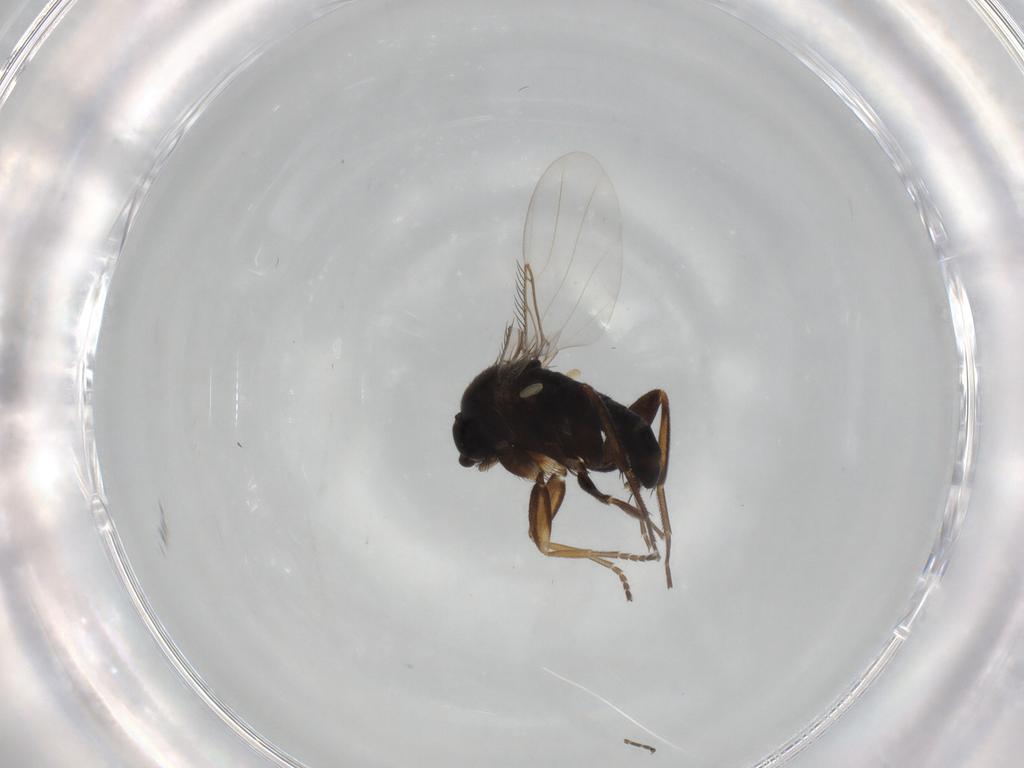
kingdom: Animalia
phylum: Arthropoda
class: Insecta
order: Diptera
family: Phoridae
